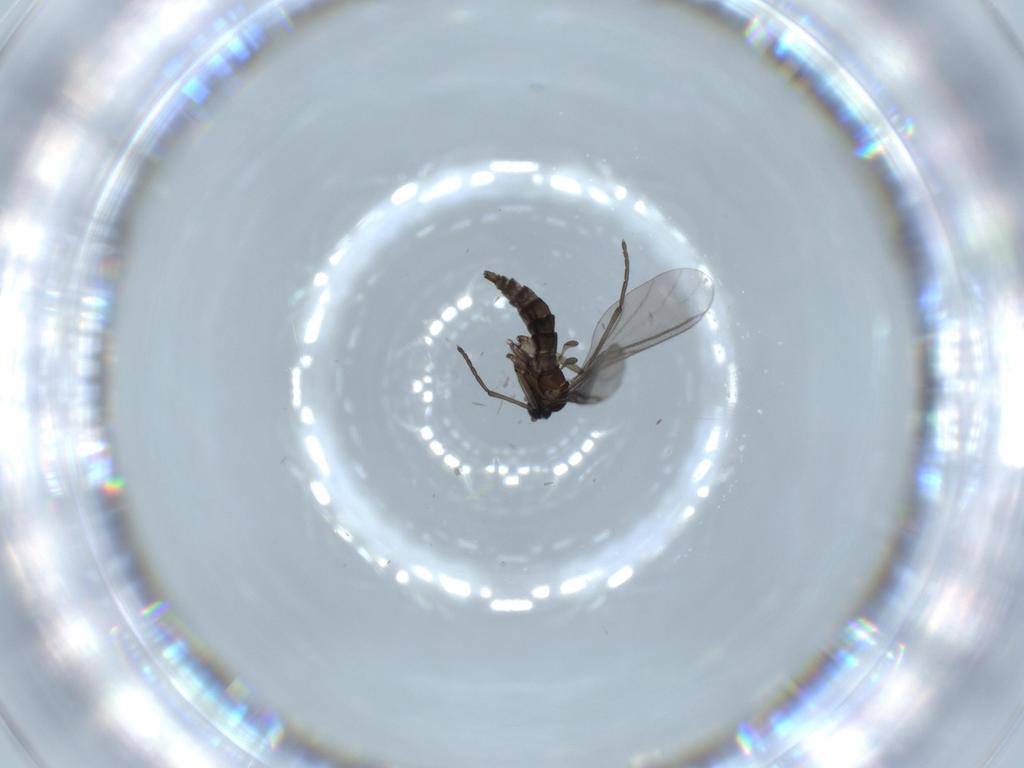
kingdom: Animalia
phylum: Arthropoda
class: Insecta
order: Diptera
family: Sciaridae
